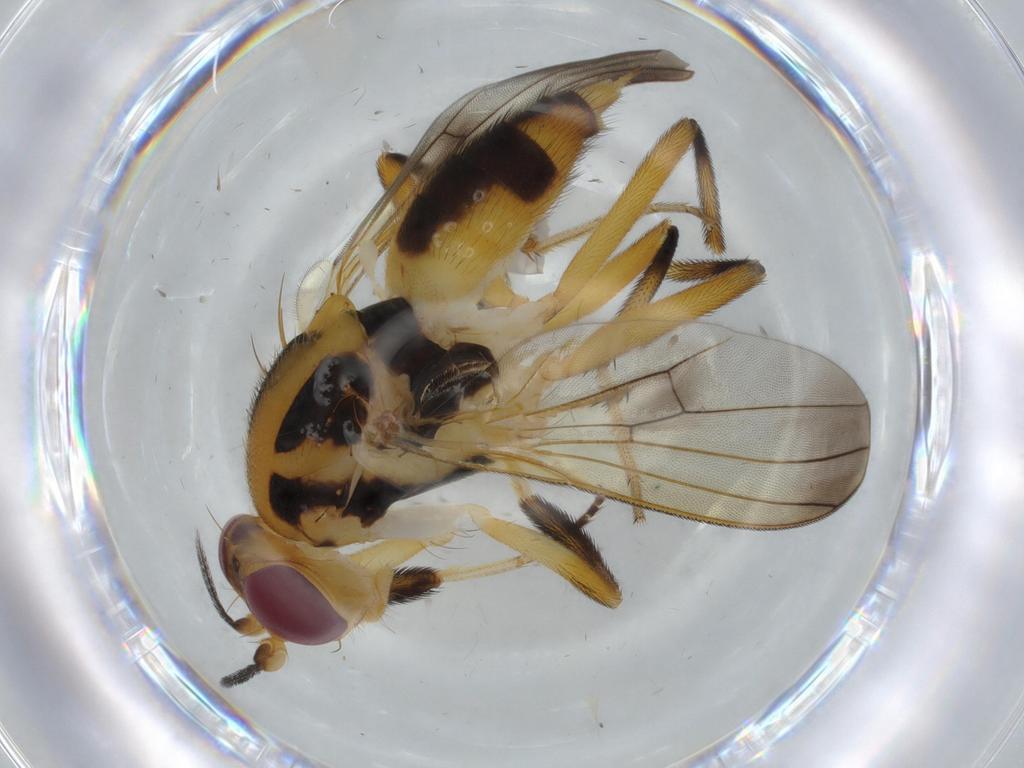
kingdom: Animalia
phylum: Arthropoda
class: Insecta
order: Diptera
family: Clusiidae
